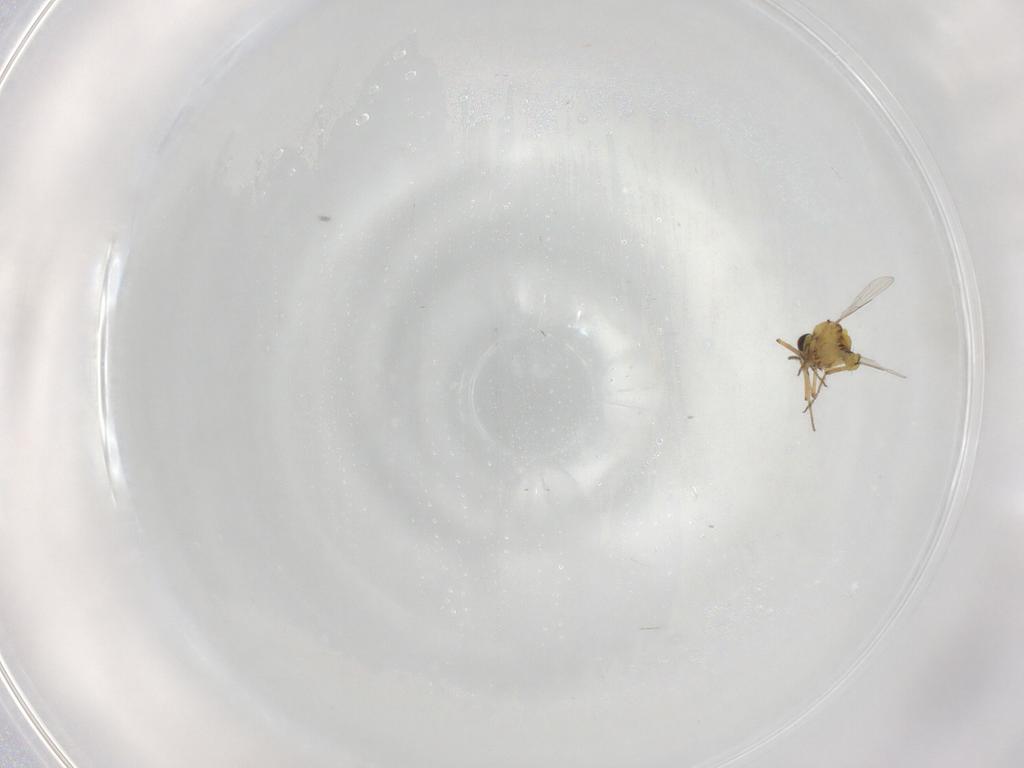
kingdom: Animalia
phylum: Arthropoda
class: Insecta
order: Diptera
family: Ceratopogonidae
